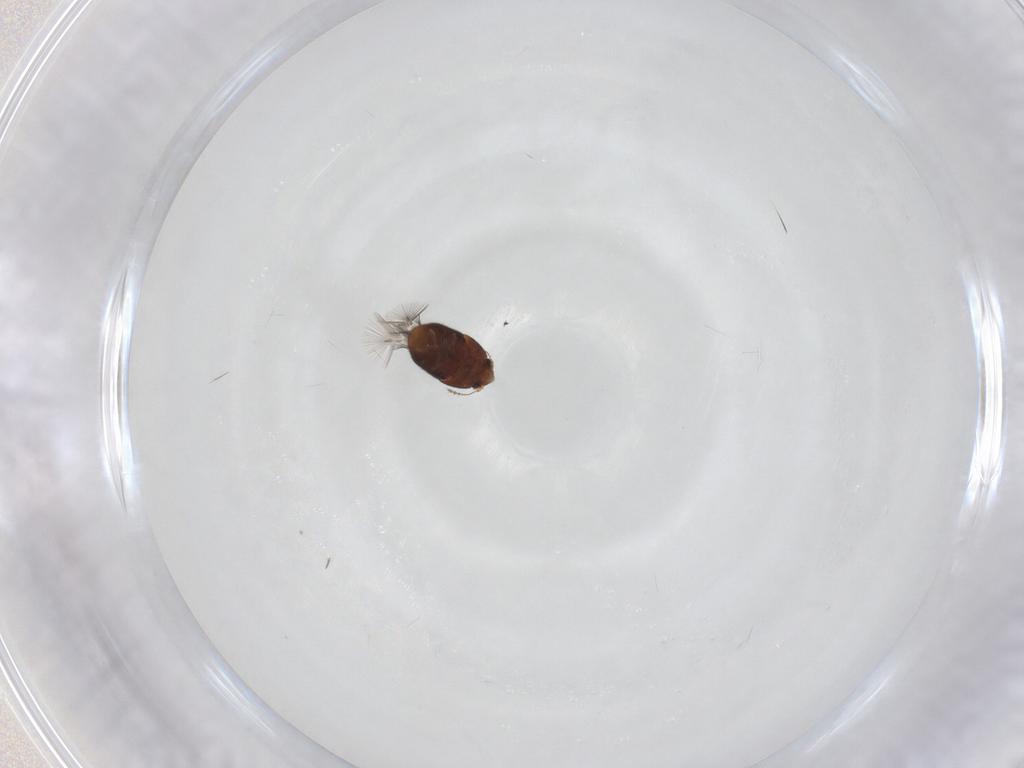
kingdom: Animalia
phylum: Arthropoda
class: Insecta
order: Coleoptera
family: Ptiliidae
